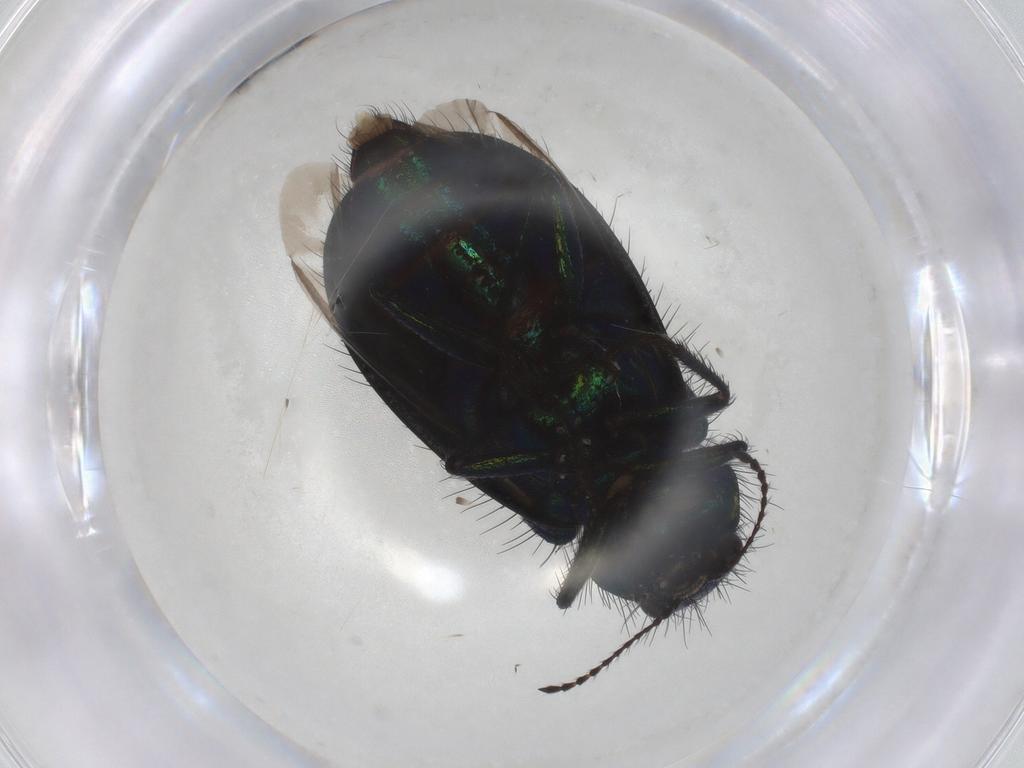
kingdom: Animalia
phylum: Arthropoda
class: Insecta
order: Coleoptera
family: Melyridae
